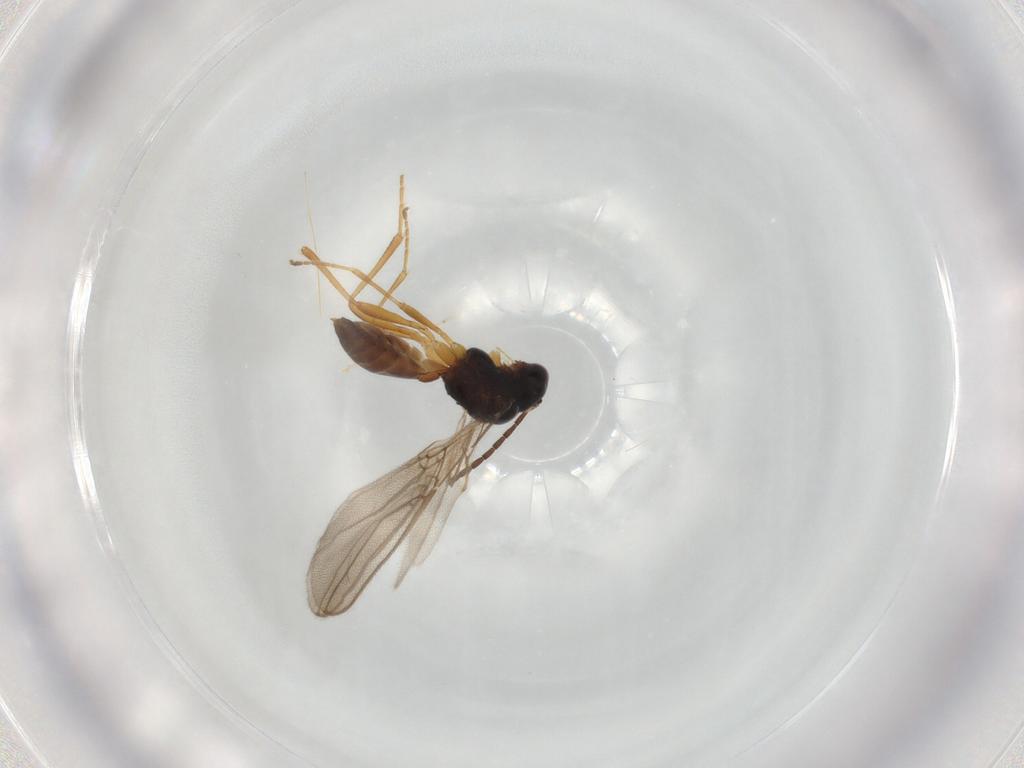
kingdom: Animalia
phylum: Arthropoda
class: Insecta
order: Hymenoptera
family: Braconidae
